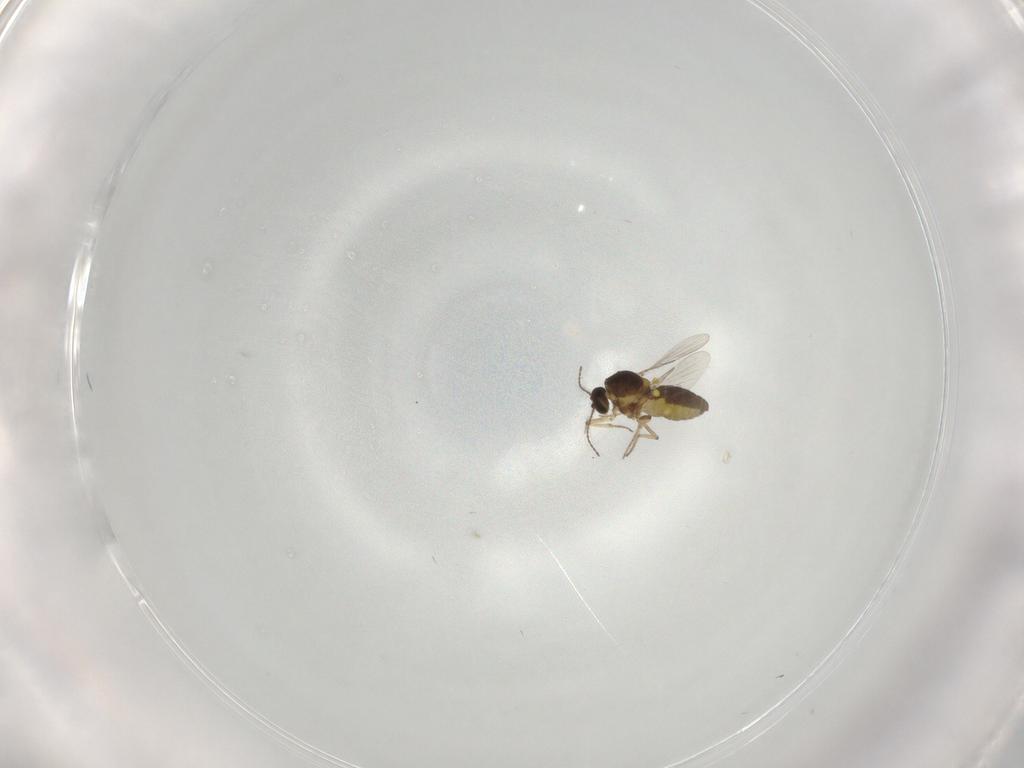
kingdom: Animalia
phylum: Arthropoda
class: Insecta
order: Diptera
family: Ceratopogonidae
